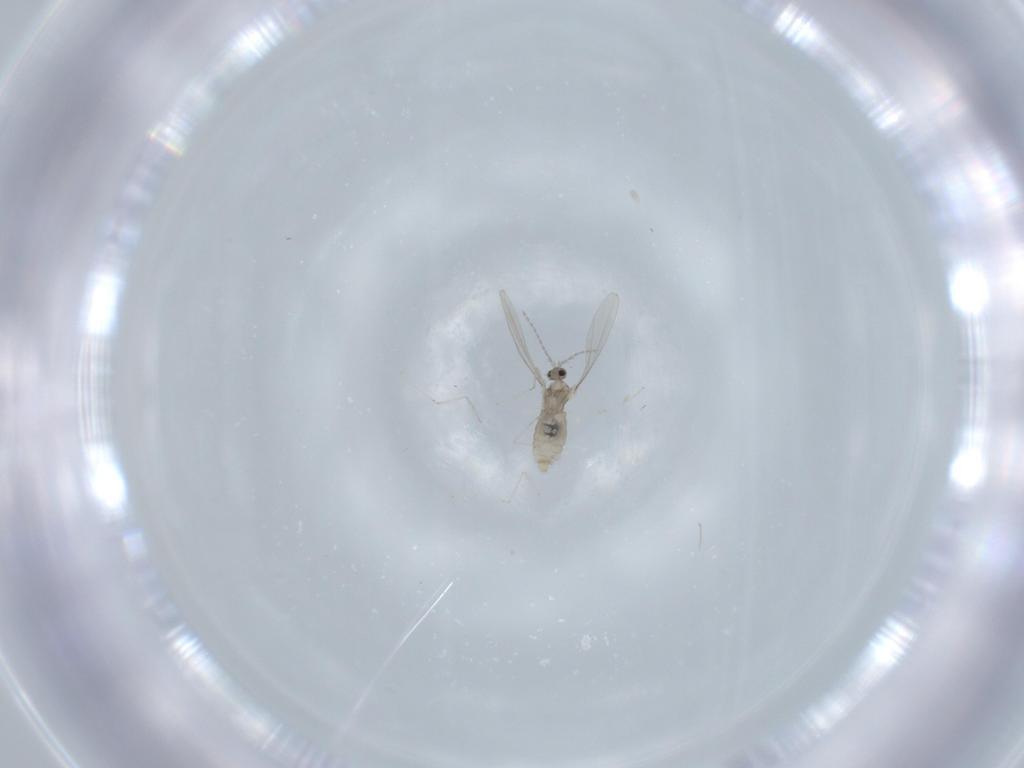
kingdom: Animalia
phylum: Arthropoda
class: Insecta
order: Diptera
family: Cecidomyiidae
